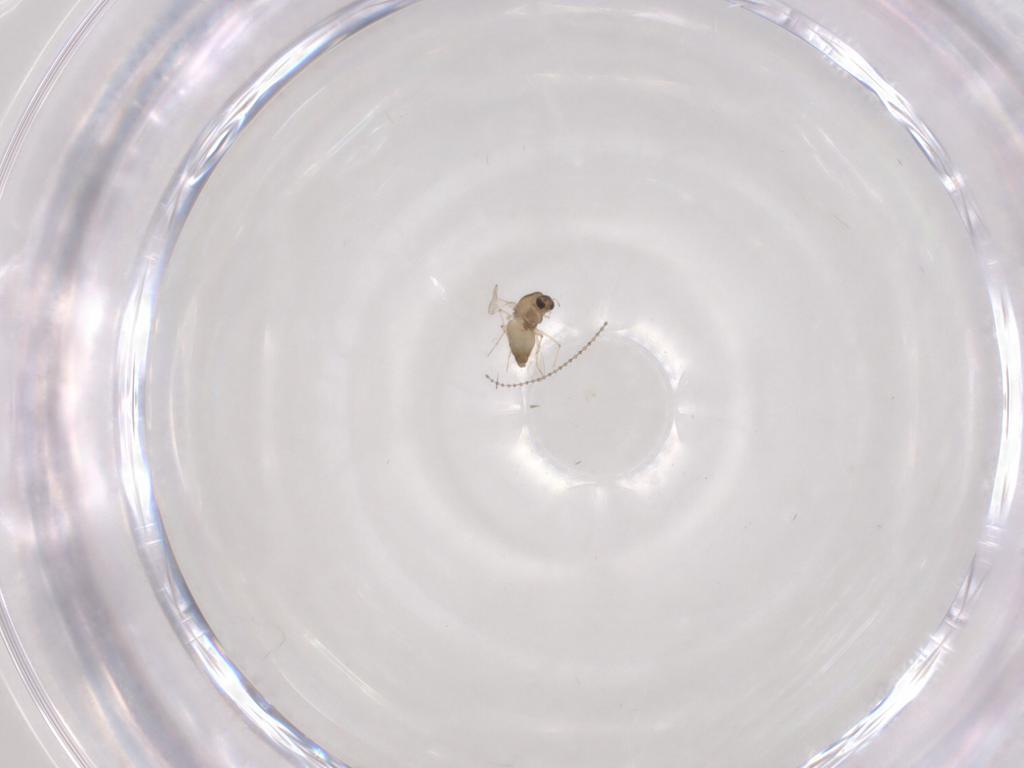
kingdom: Animalia
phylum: Arthropoda
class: Insecta
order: Diptera
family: Chironomidae
